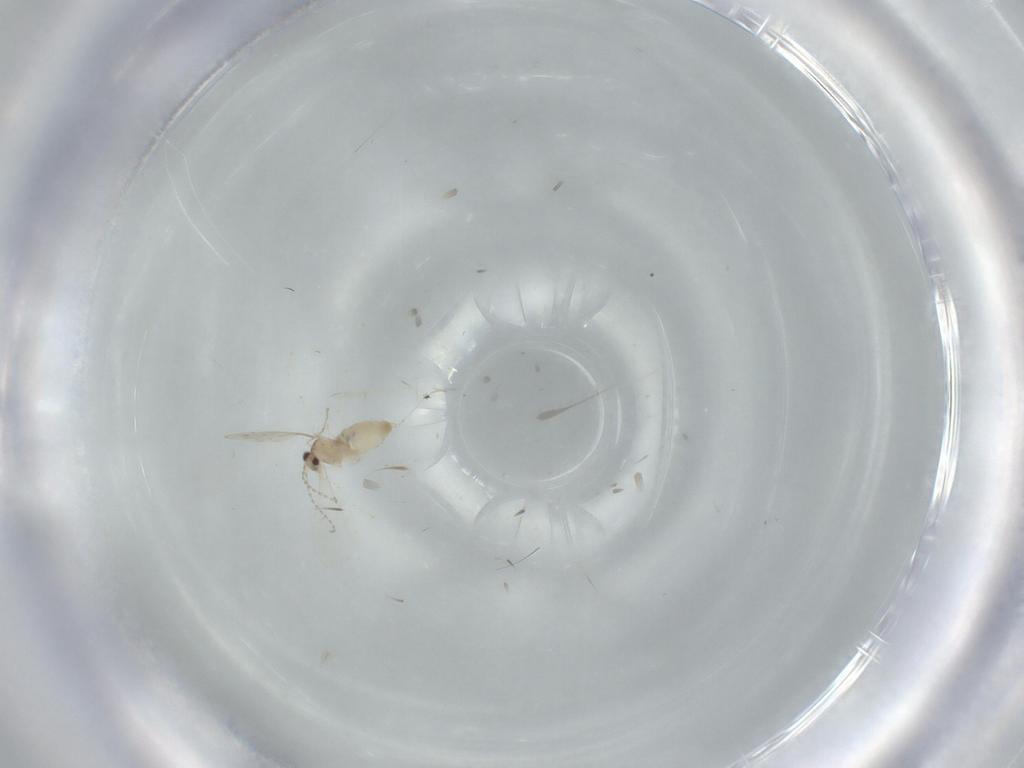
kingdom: Animalia
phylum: Arthropoda
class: Insecta
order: Diptera
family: Cecidomyiidae
